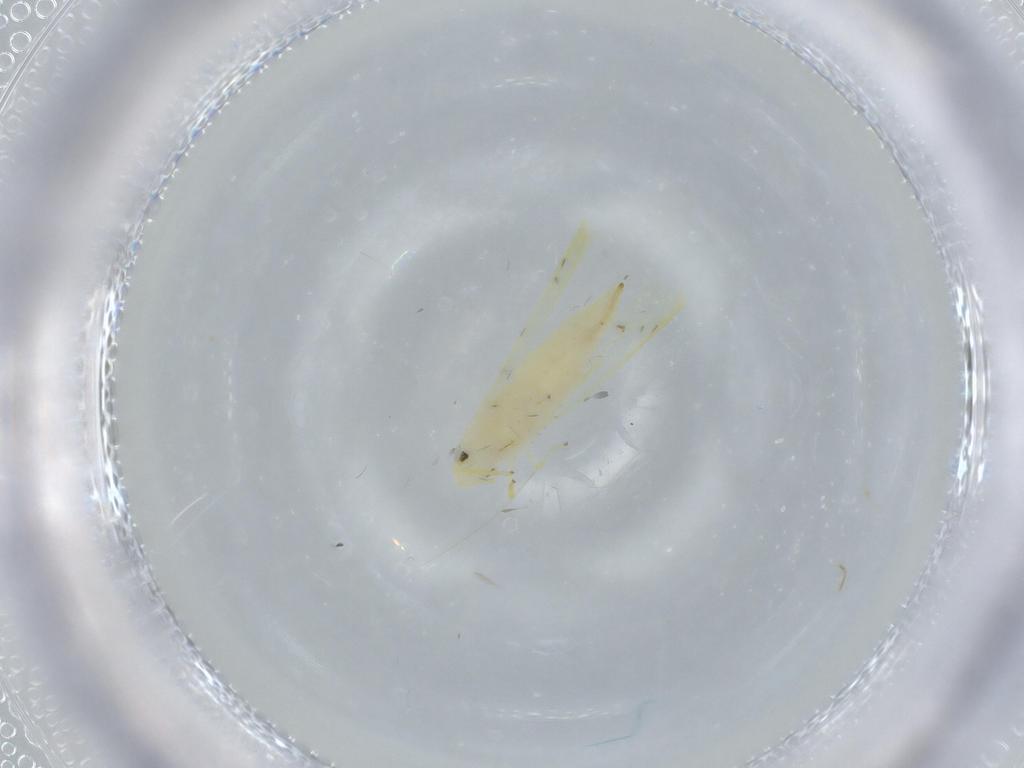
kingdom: Animalia
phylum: Arthropoda
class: Insecta
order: Hemiptera
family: Cicadellidae
